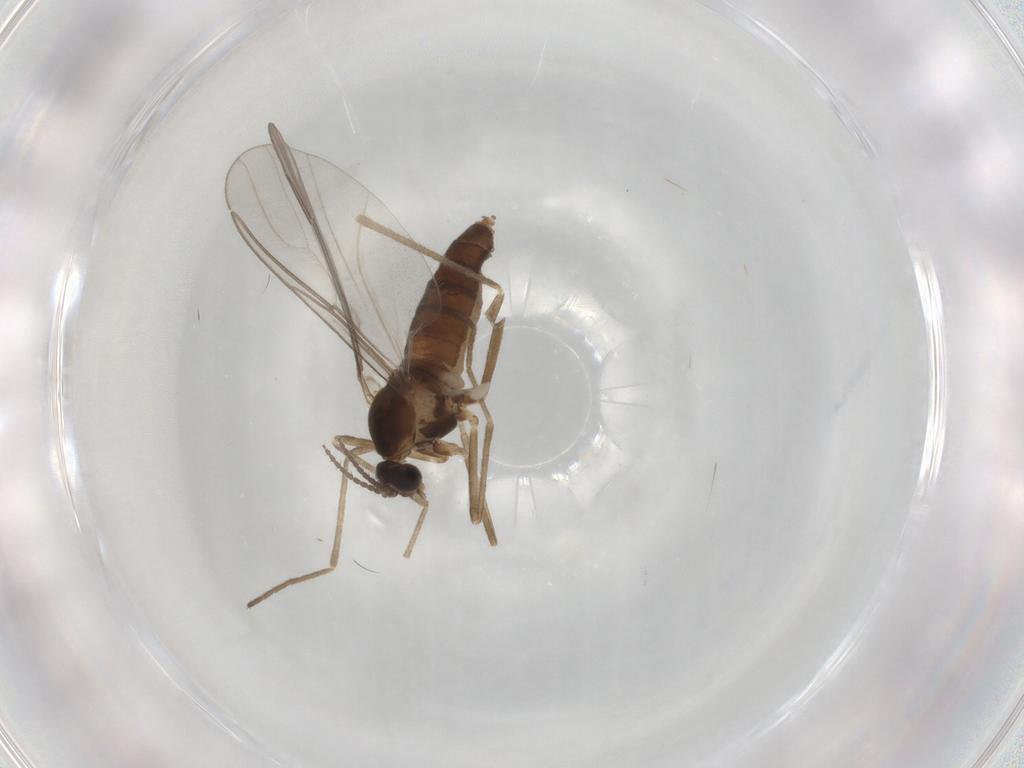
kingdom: Animalia
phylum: Arthropoda
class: Insecta
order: Diptera
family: Cecidomyiidae
